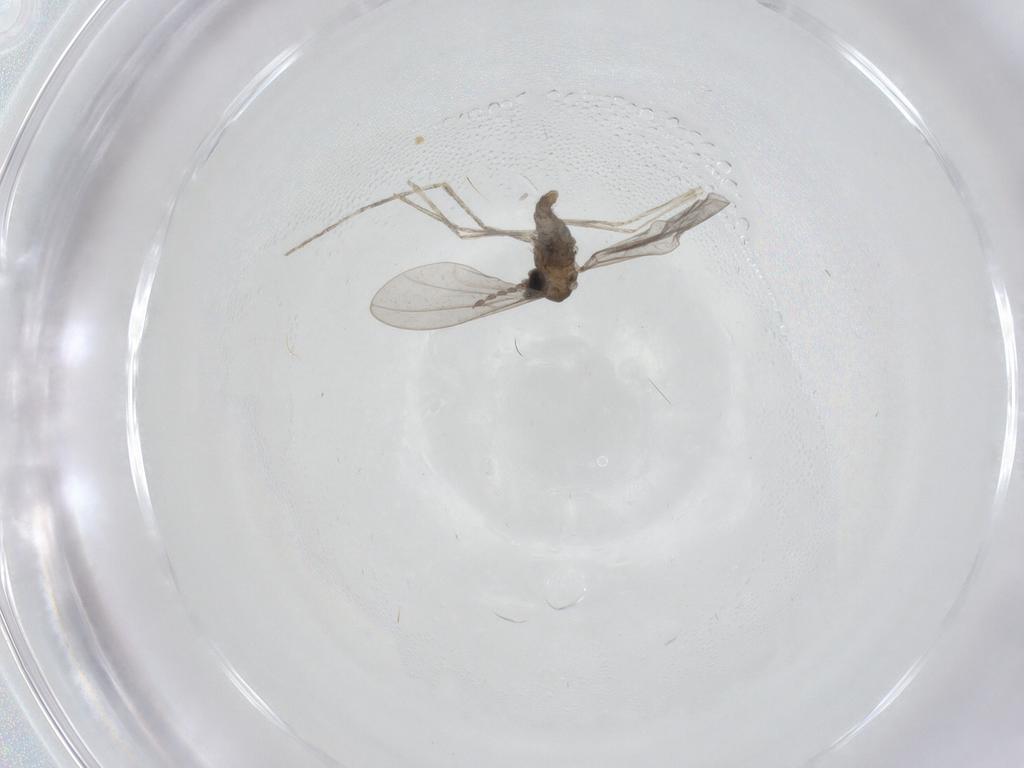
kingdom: Animalia
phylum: Arthropoda
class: Insecta
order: Diptera
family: Cecidomyiidae
